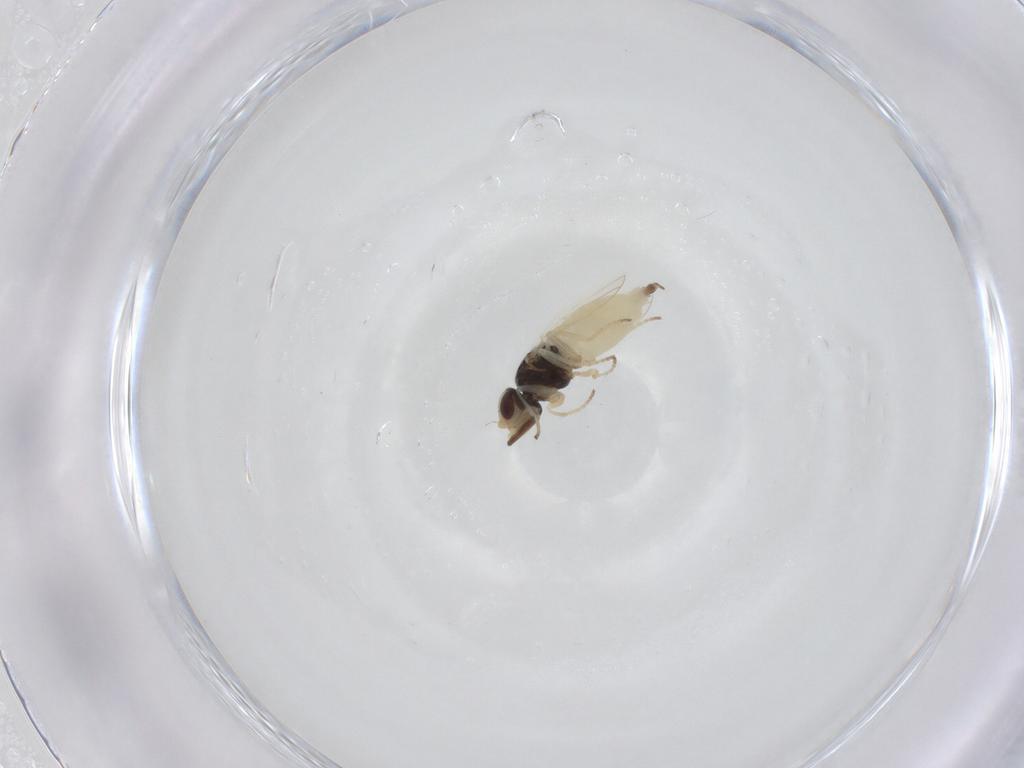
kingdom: Animalia
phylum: Arthropoda
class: Insecta
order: Diptera
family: Chloropidae
